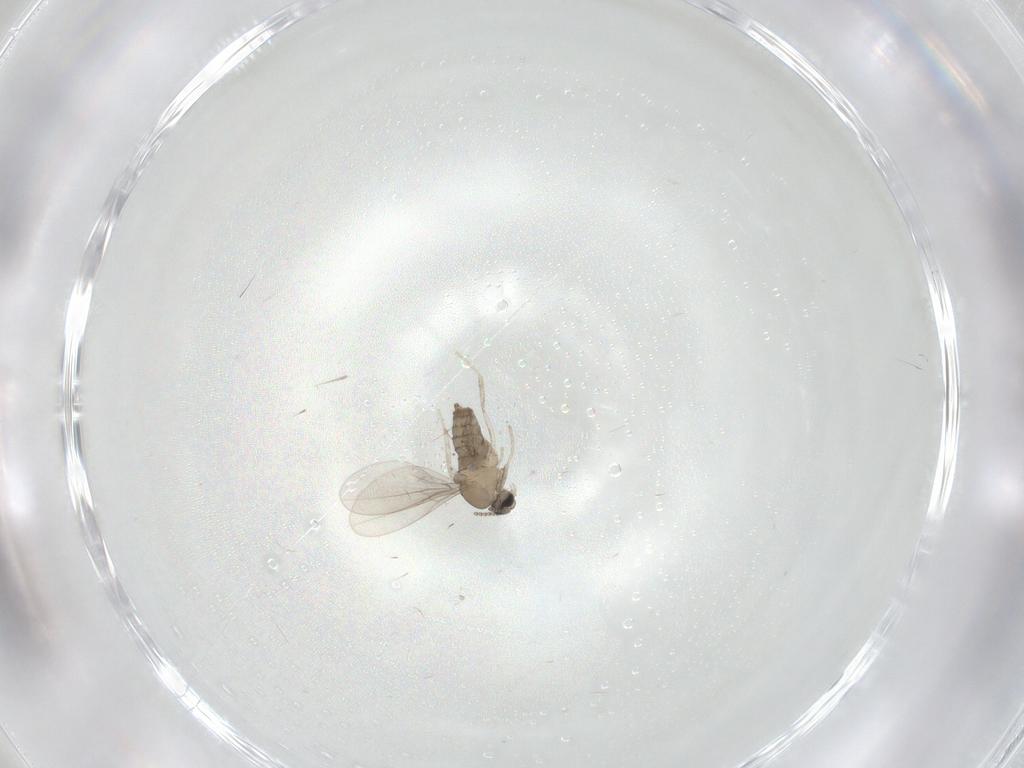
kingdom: Animalia
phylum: Arthropoda
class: Insecta
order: Diptera
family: Cecidomyiidae
